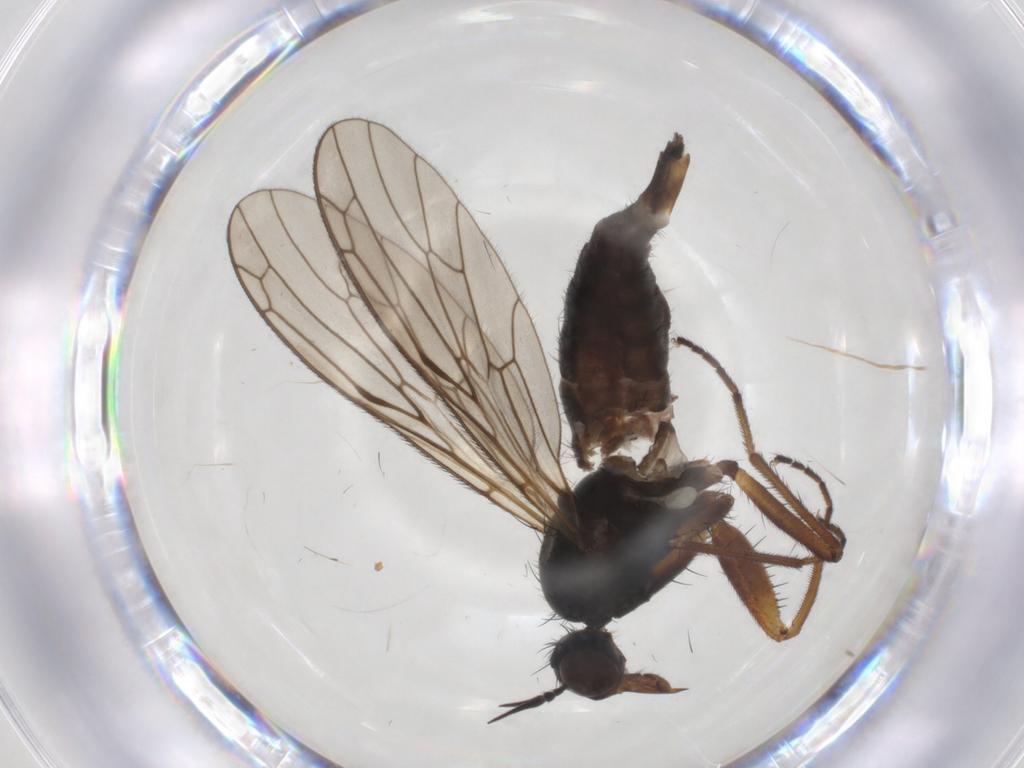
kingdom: Animalia
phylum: Arthropoda
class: Insecta
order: Diptera
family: Empididae
